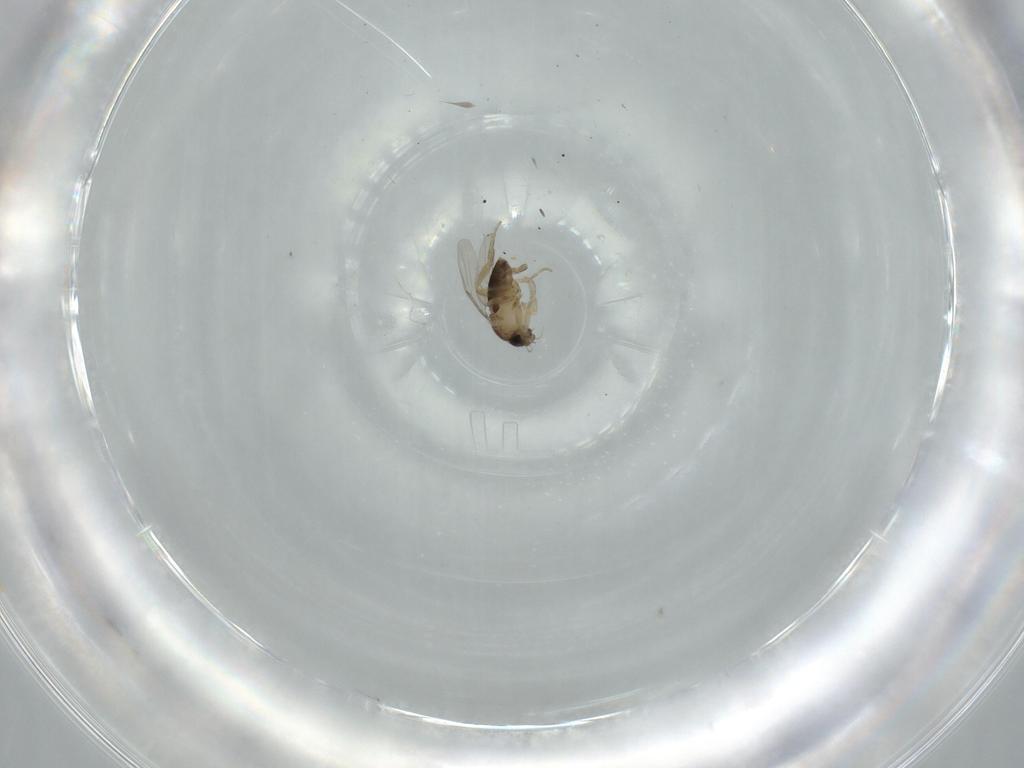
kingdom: Animalia
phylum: Arthropoda
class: Insecta
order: Diptera
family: Phoridae
